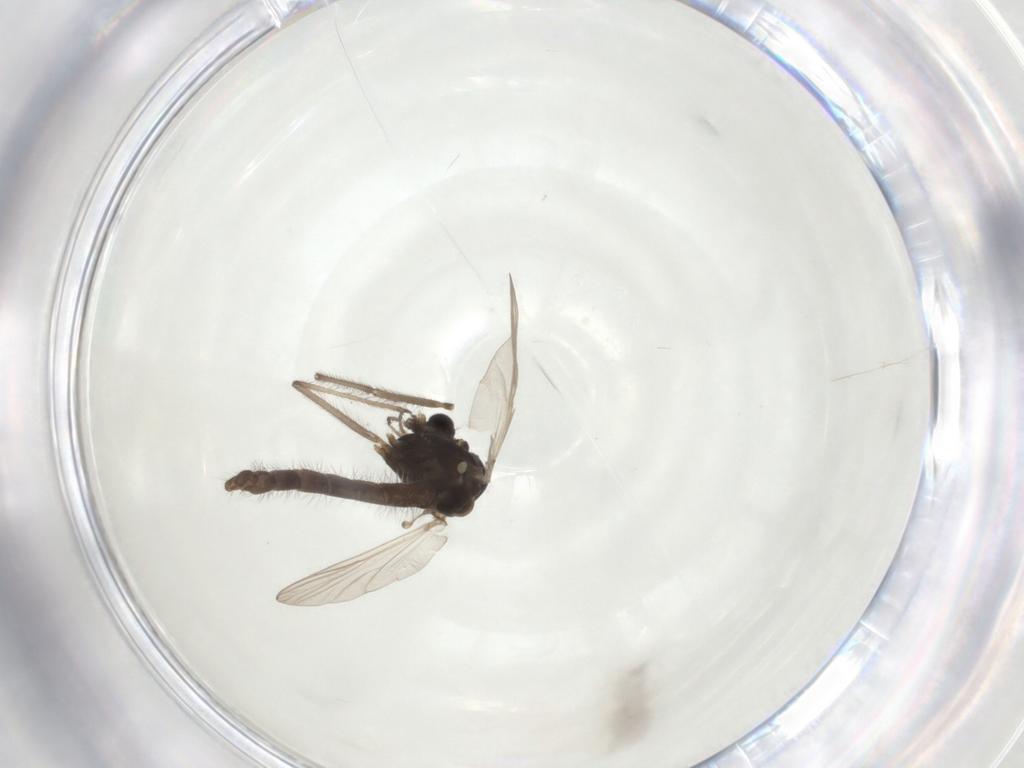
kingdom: Animalia
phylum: Arthropoda
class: Insecta
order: Diptera
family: Chironomidae
